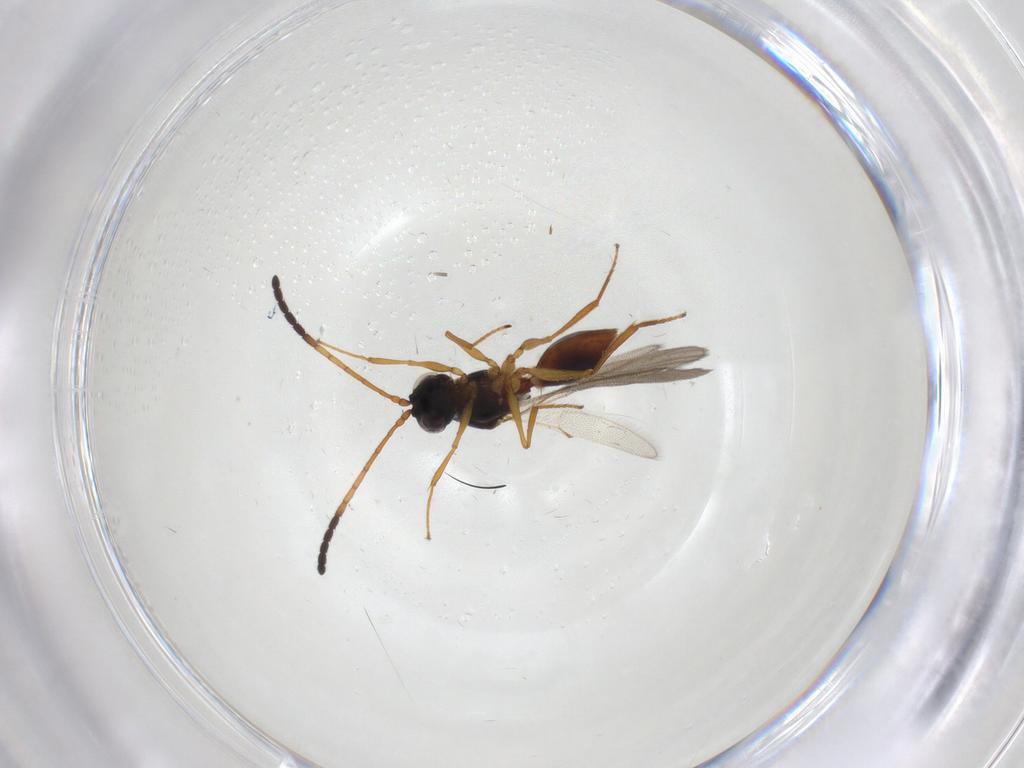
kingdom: Animalia
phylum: Arthropoda
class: Insecta
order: Hymenoptera
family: Figitidae
